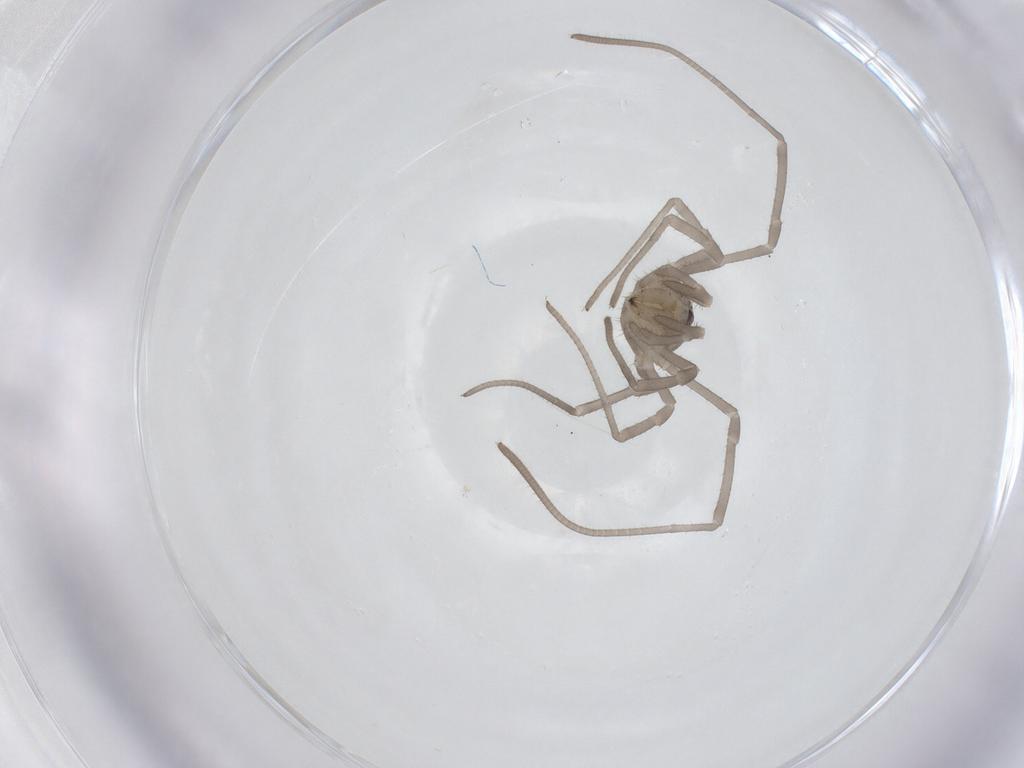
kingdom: Animalia
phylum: Arthropoda
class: Arachnida
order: Opiliones
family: Sclerosomatidae
